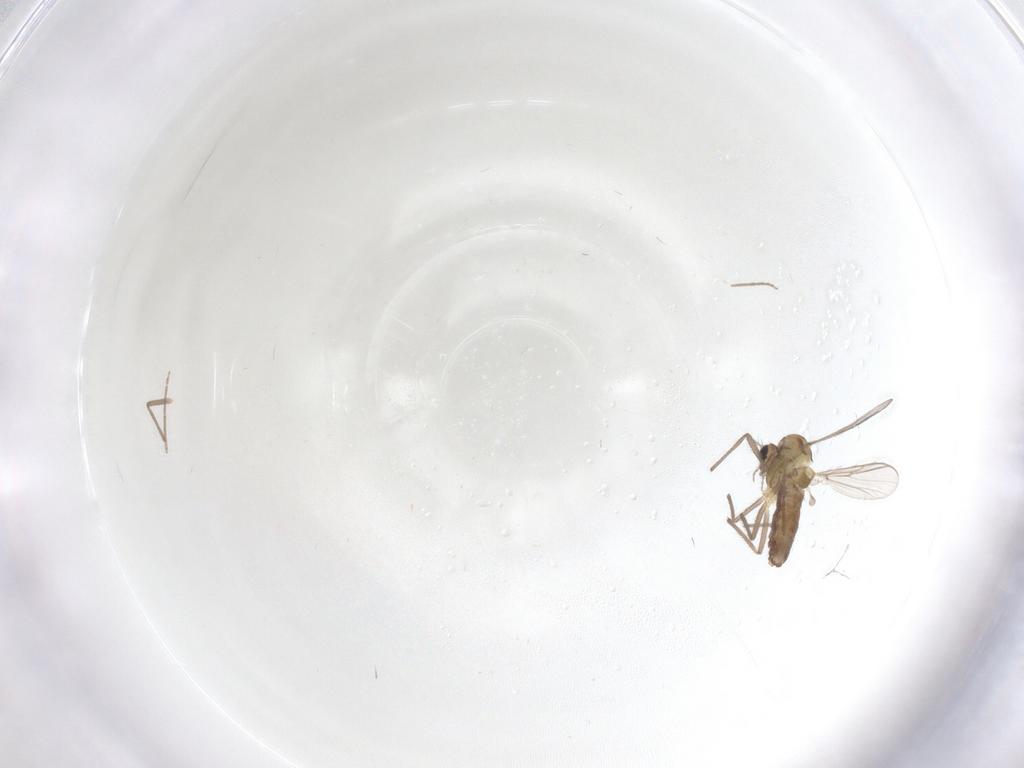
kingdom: Animalia
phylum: Arthropoda
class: Insecta
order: Diptera
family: Chironomidae
